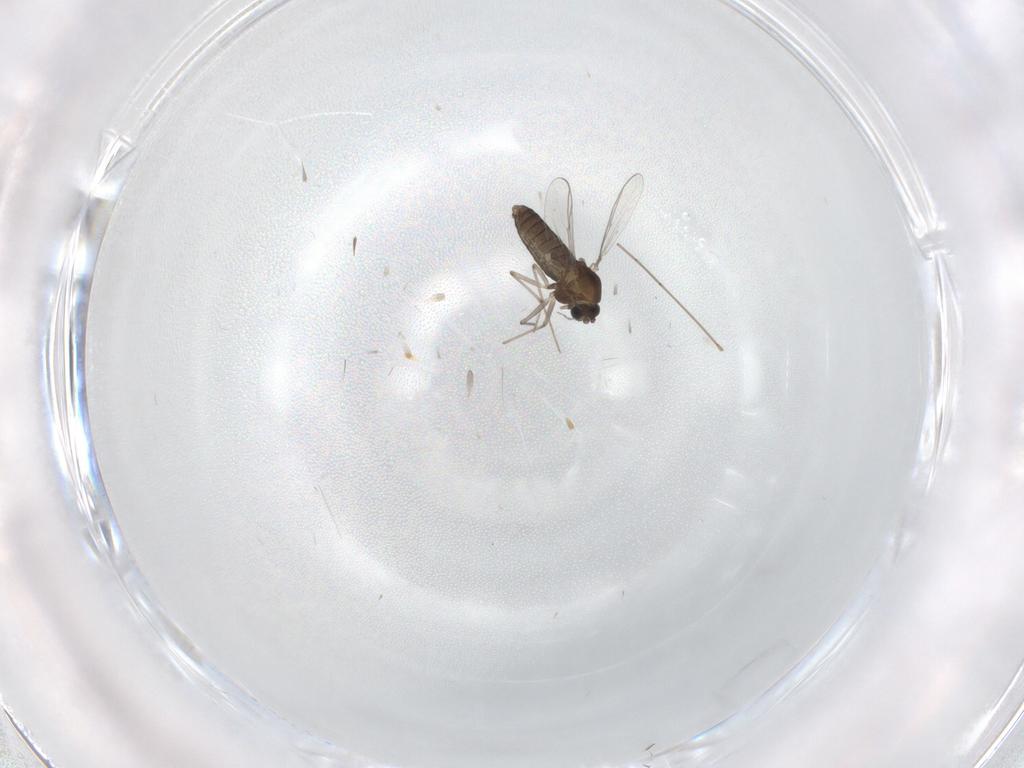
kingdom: Animalia
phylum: Arthropoda
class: Insecta
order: Diptera
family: Chironomidae
